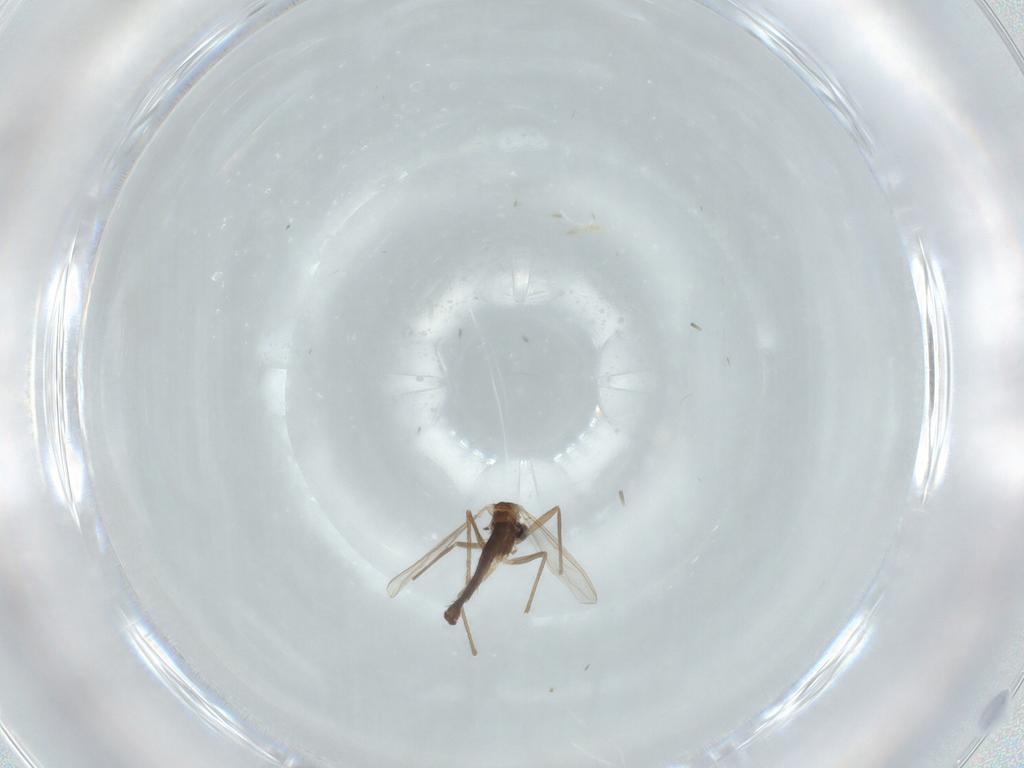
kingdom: Animalia
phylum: Arthropoda
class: Insecta
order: Diptera
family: Chironomidae
